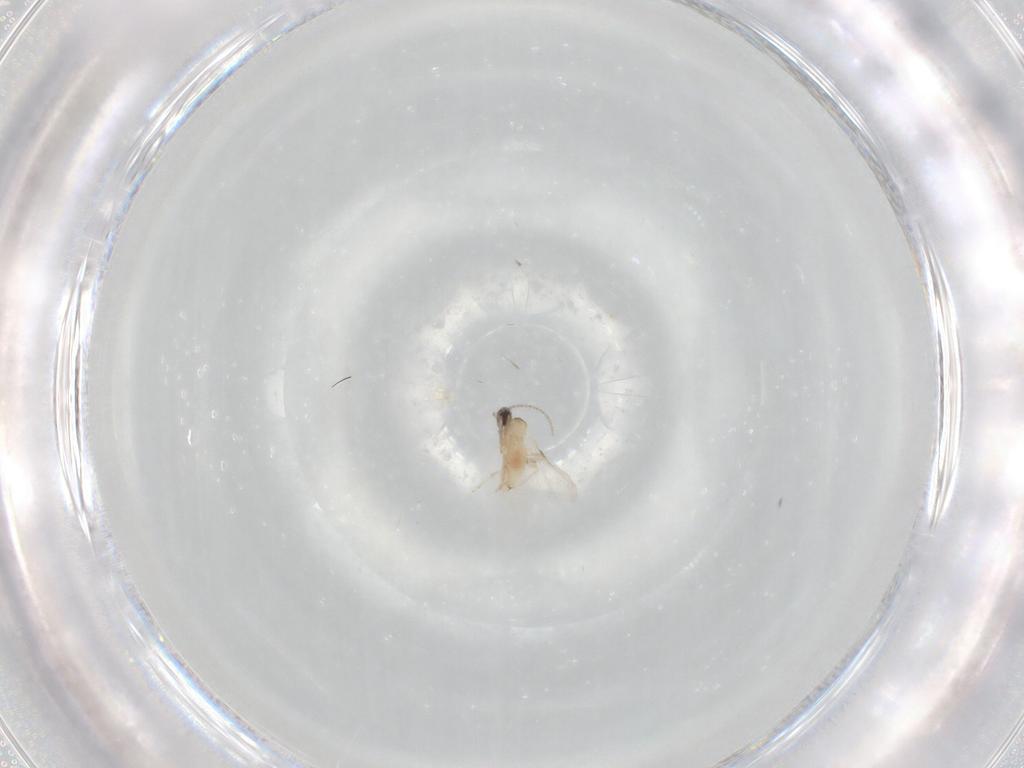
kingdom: Animalia
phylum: Arthropoda
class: Insecta
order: Diptera
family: Cecidomyiidae
